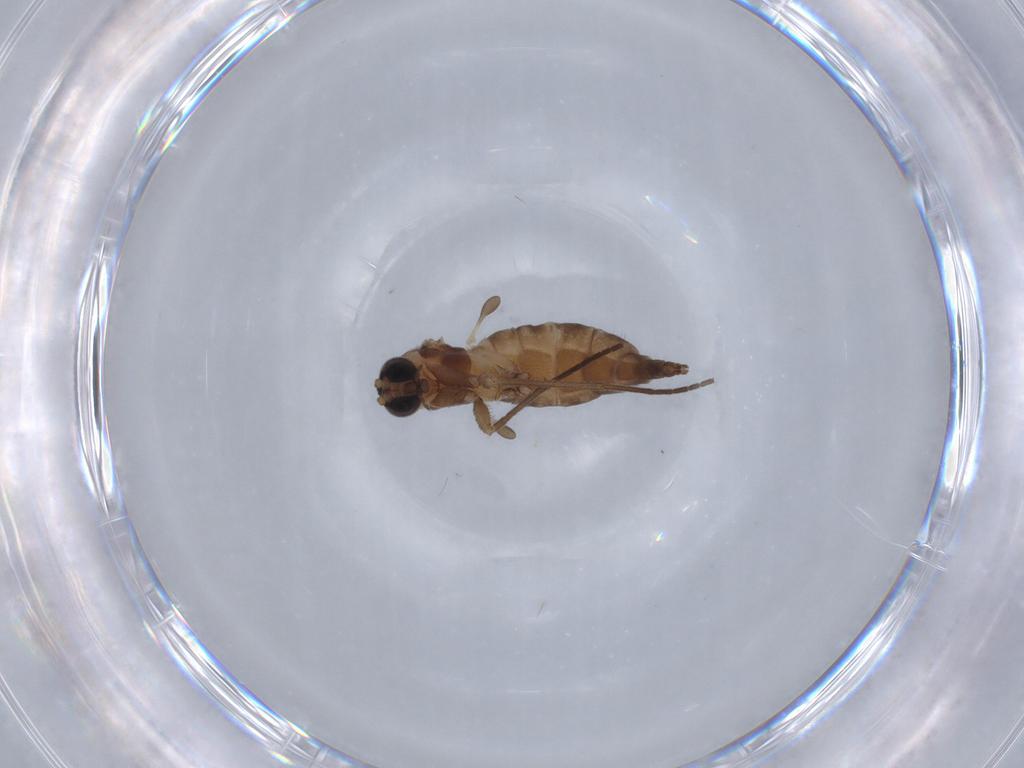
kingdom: Animalia
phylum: Arthropoda
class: Insecta
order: Diptera
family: Sciaridae
